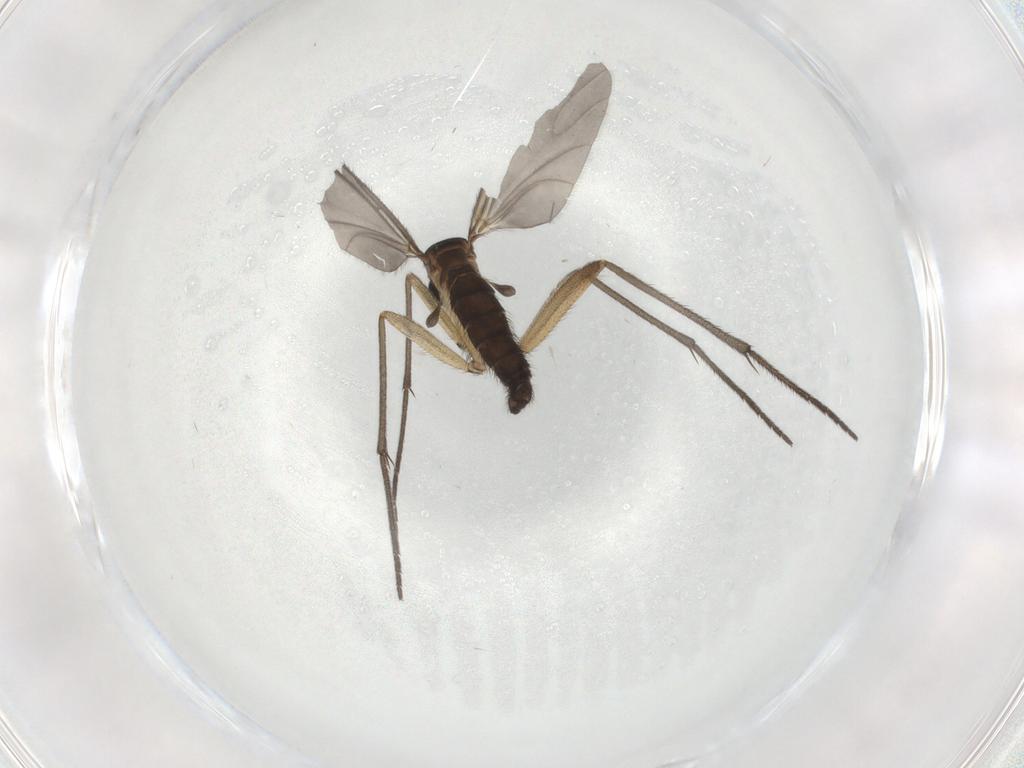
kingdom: Animalia
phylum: Arthropoda
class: Insecta
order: Diptera
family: Sciaridae
